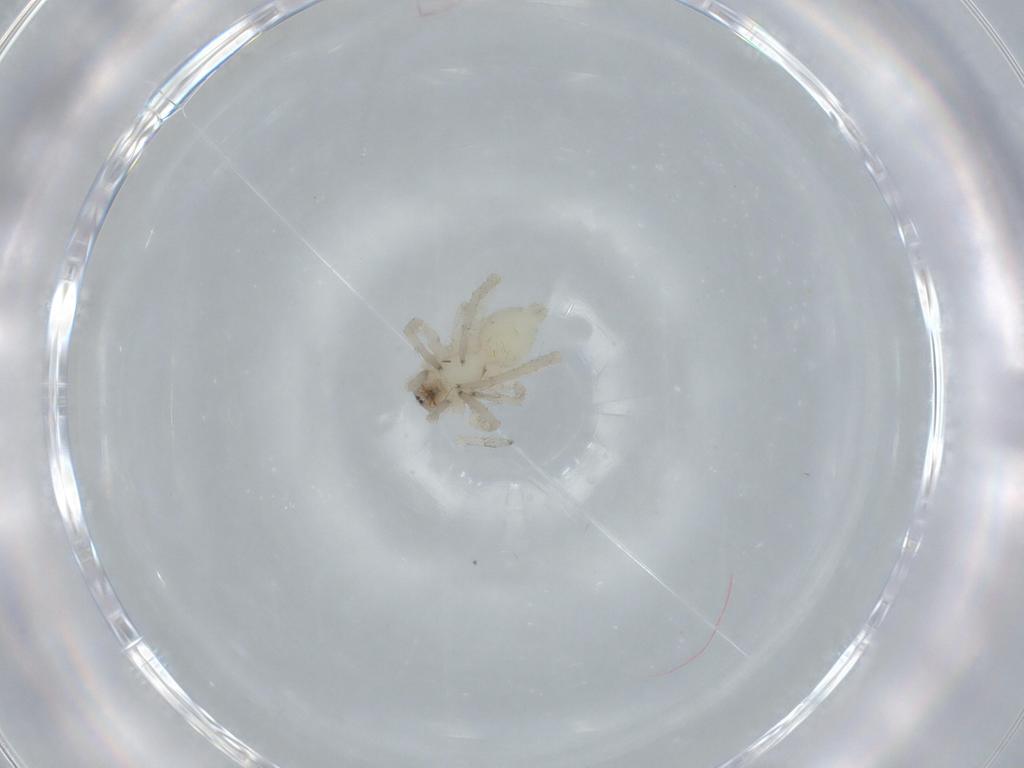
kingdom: Animalia
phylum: Arthropoda
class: Arachnida
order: Araneae
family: Anyphaenidae
